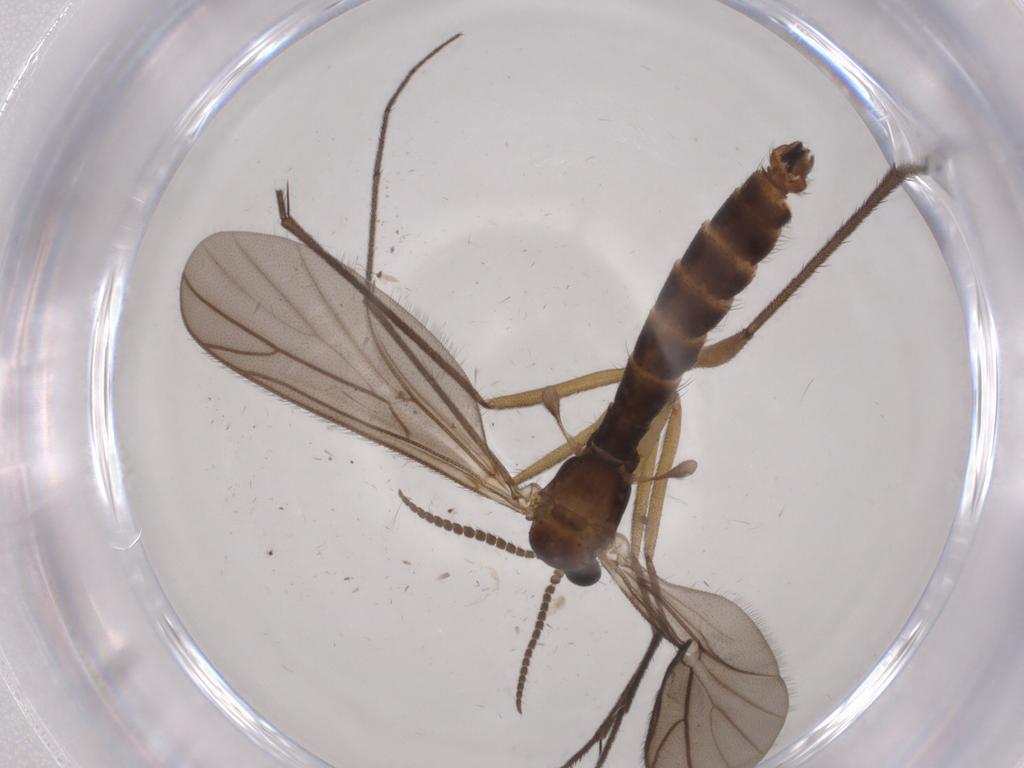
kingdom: Animalia
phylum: Arthropoda
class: Insecta
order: Diptera
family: Ditomyiidae
